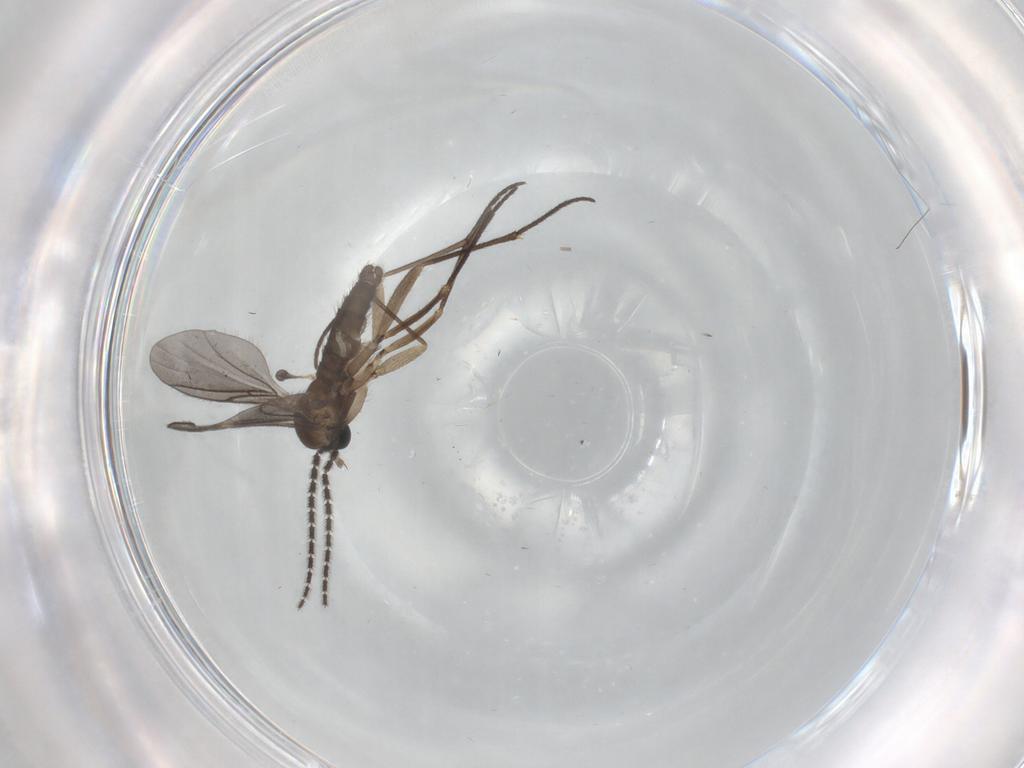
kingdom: Animalia
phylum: Arthropoda
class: Insecta
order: Diptera
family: Sciaridae
